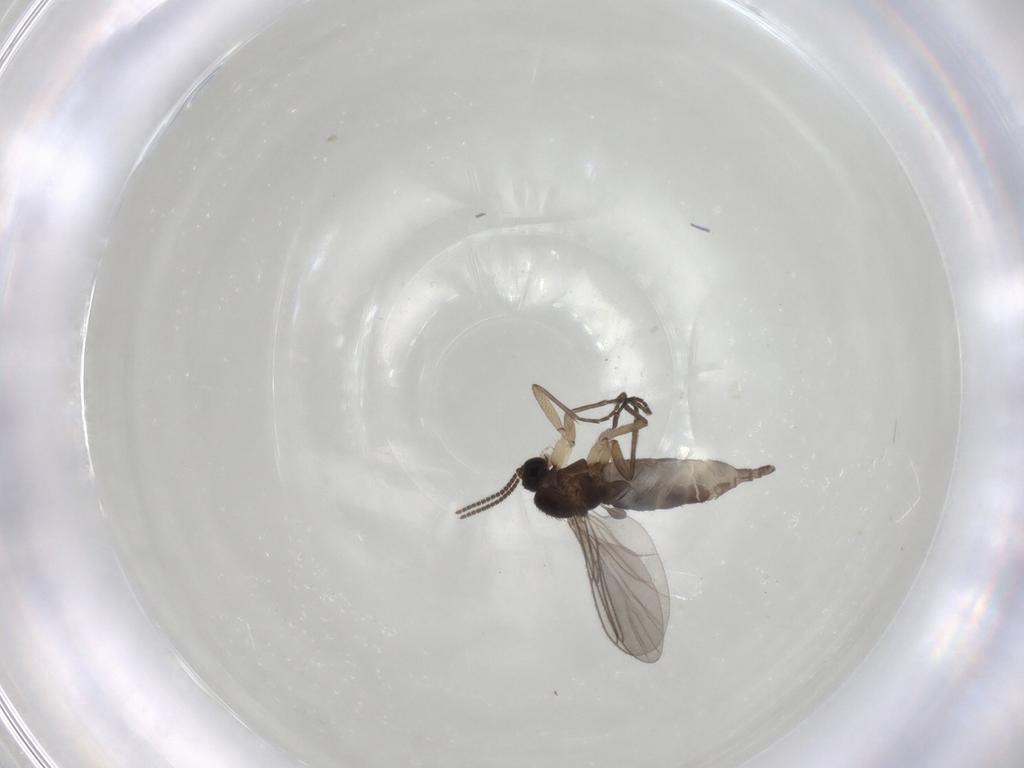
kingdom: Animalia
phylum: Arthropoda
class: Insecta
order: Diptera
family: Sciaridae
